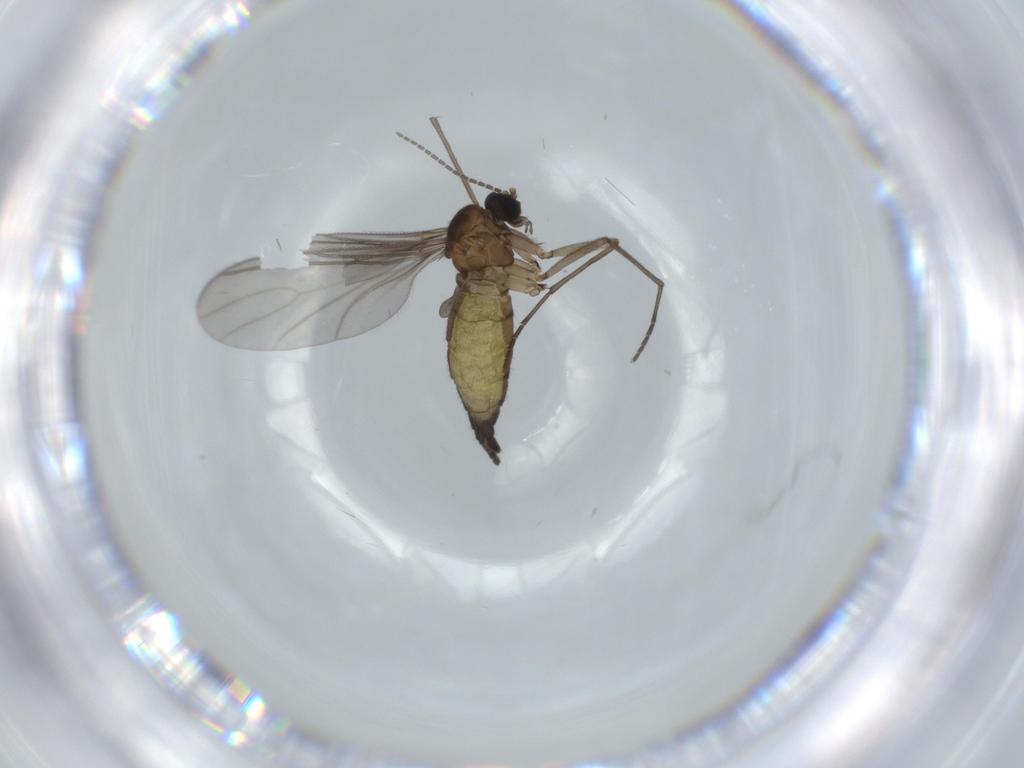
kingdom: Animalia
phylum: Arthropoda
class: Insecta
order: Diptera
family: Sciaridae
